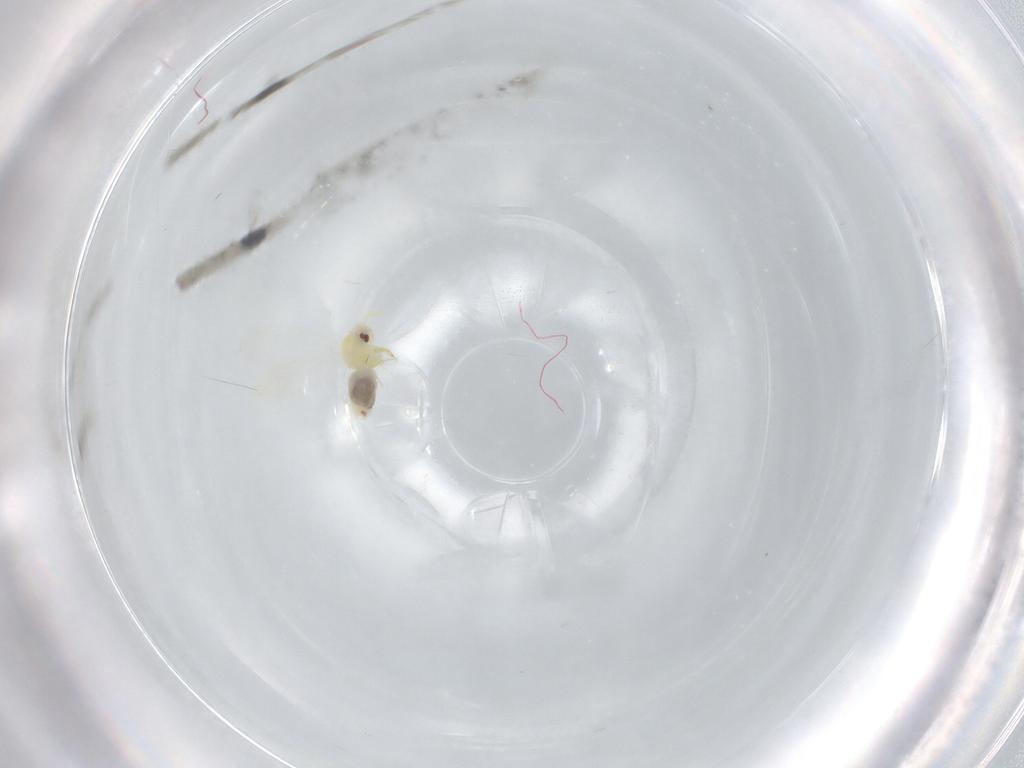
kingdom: Animalia
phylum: Arthropoda
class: Insecta
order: Hemiptera
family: Aleyrodidae
